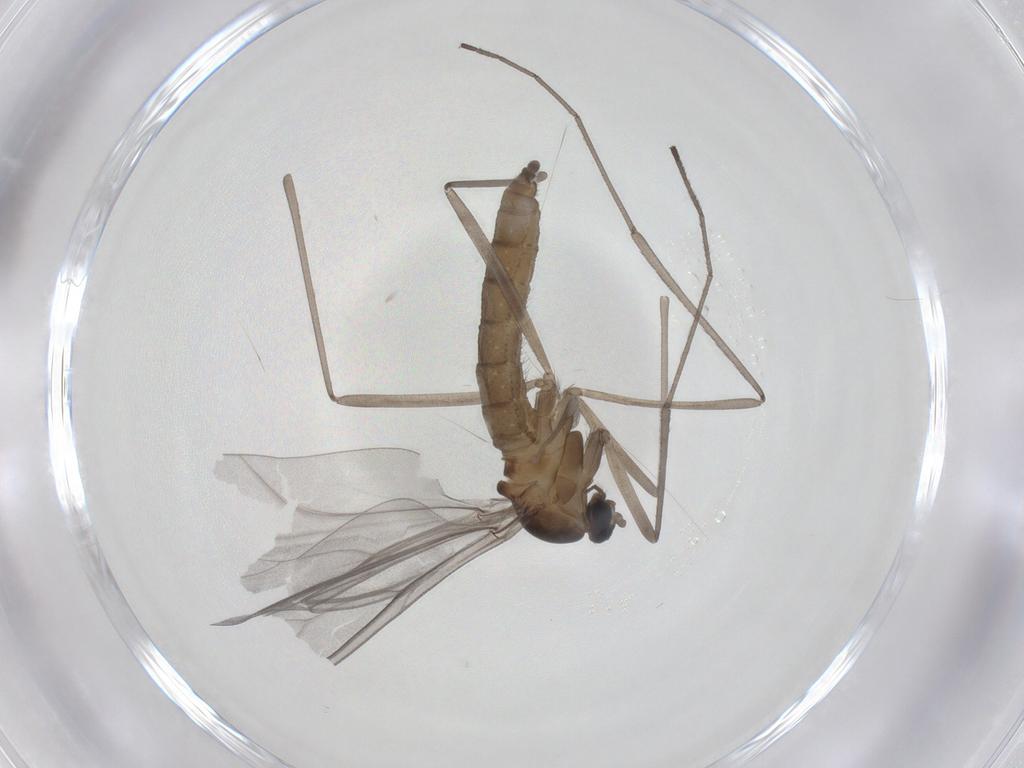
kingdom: Animalia
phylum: Arthropoda
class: Insecta
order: Diptera
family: Cecidomyiidae
